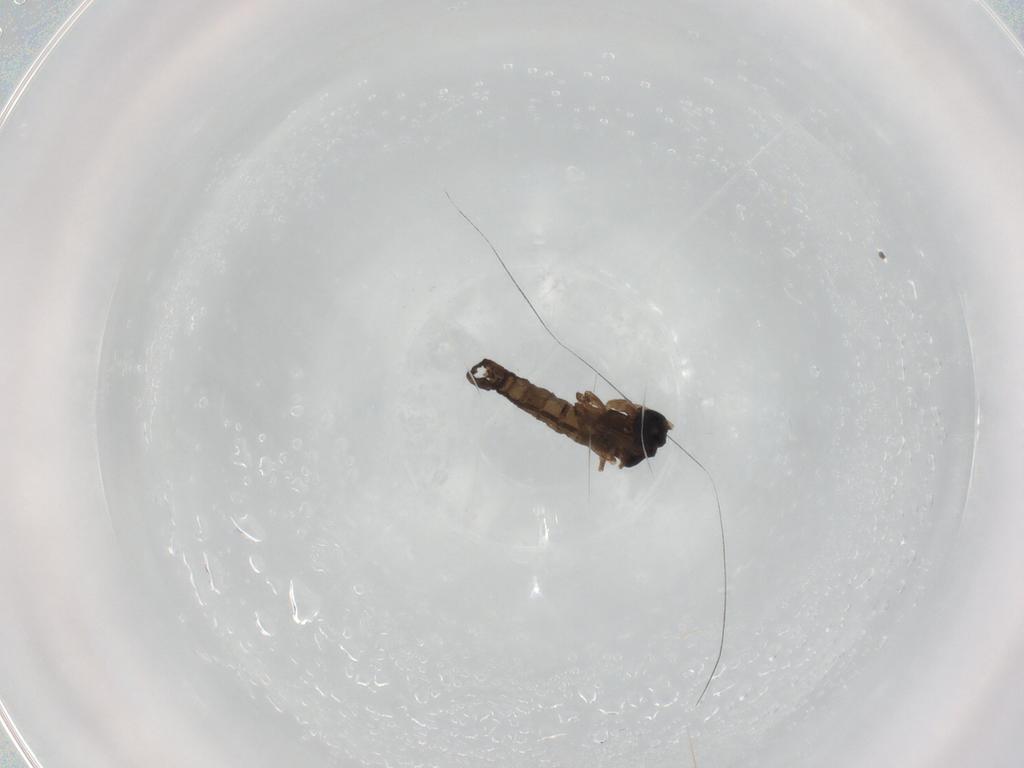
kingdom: Animalia
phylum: Arthropoda
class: Insecta
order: Diptera
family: Sciaridae
